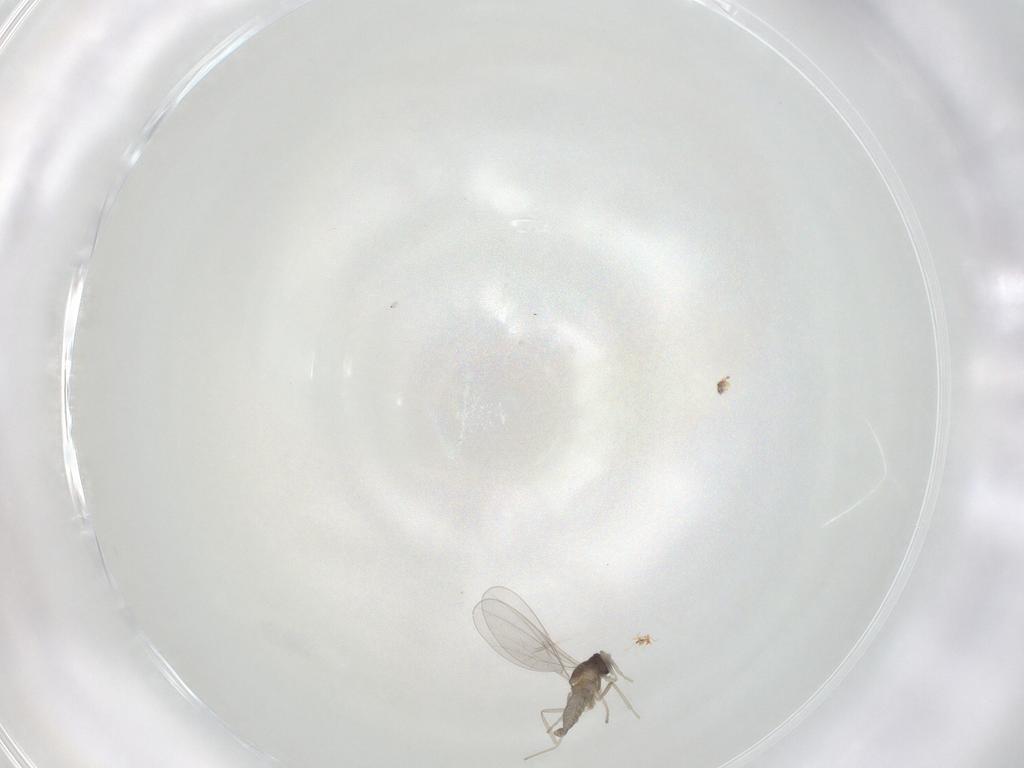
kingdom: Animalia
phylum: Arthropoda
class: Insecta
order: Diptera
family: Cecidomyiidae
